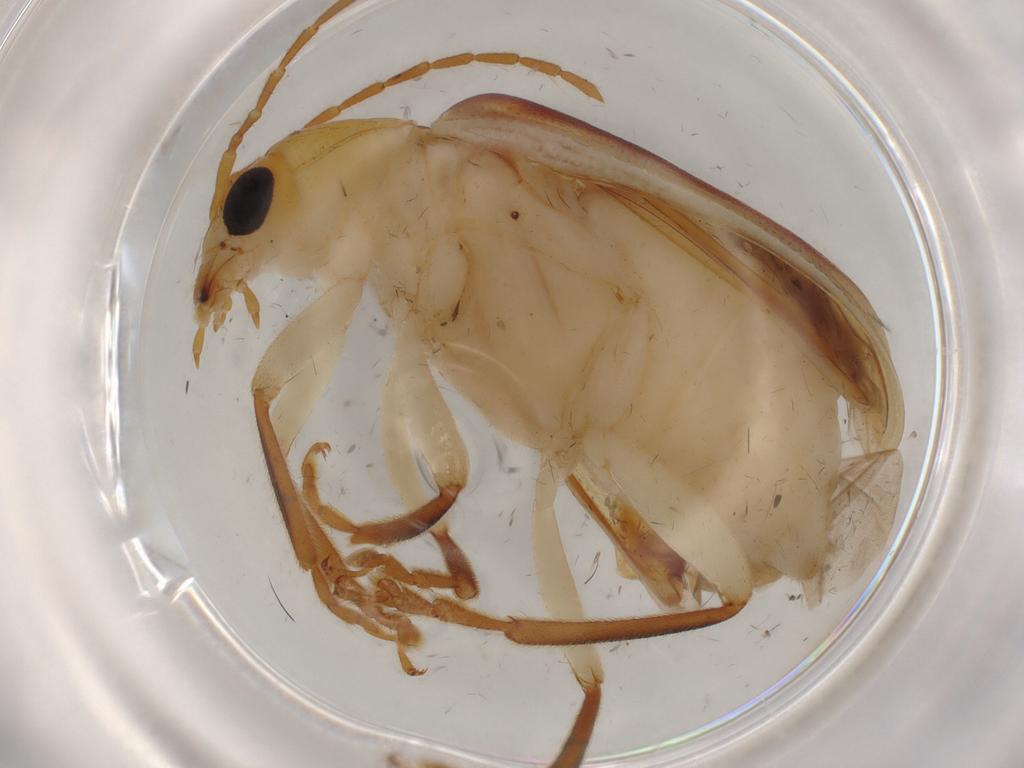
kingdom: Animalia
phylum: Arthropoda
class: Insecta
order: Coleoptera
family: Chrysomelidae
